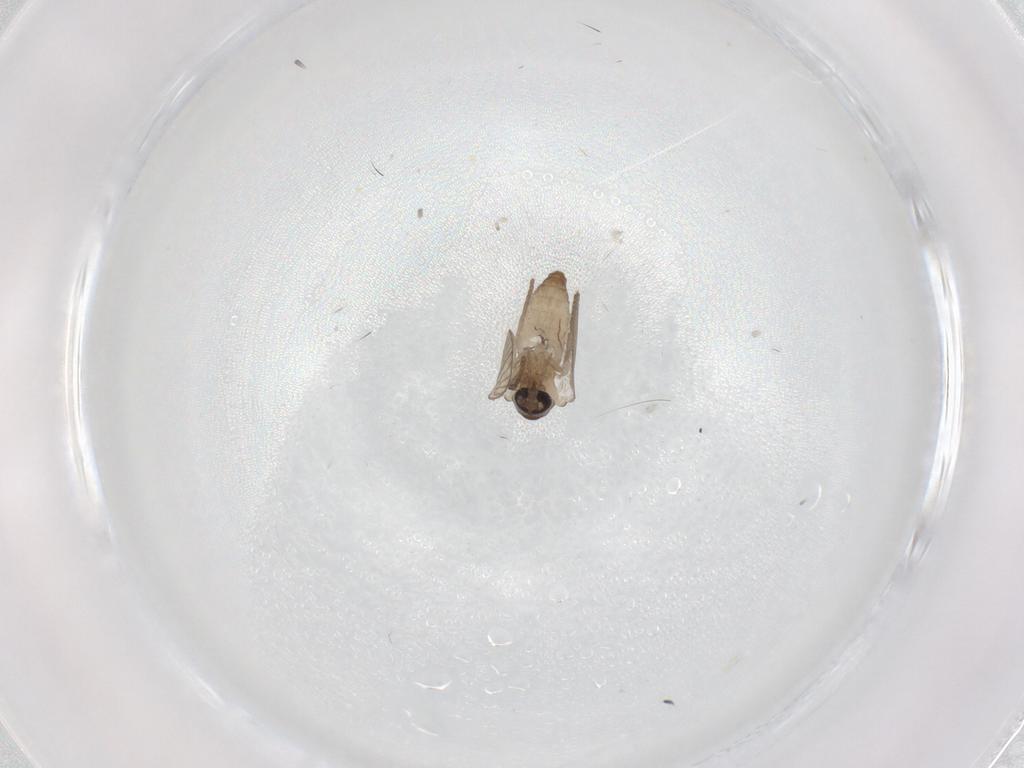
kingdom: Animalia
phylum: Arthropoda
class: Insecta
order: Diptera
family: Psychodidae
